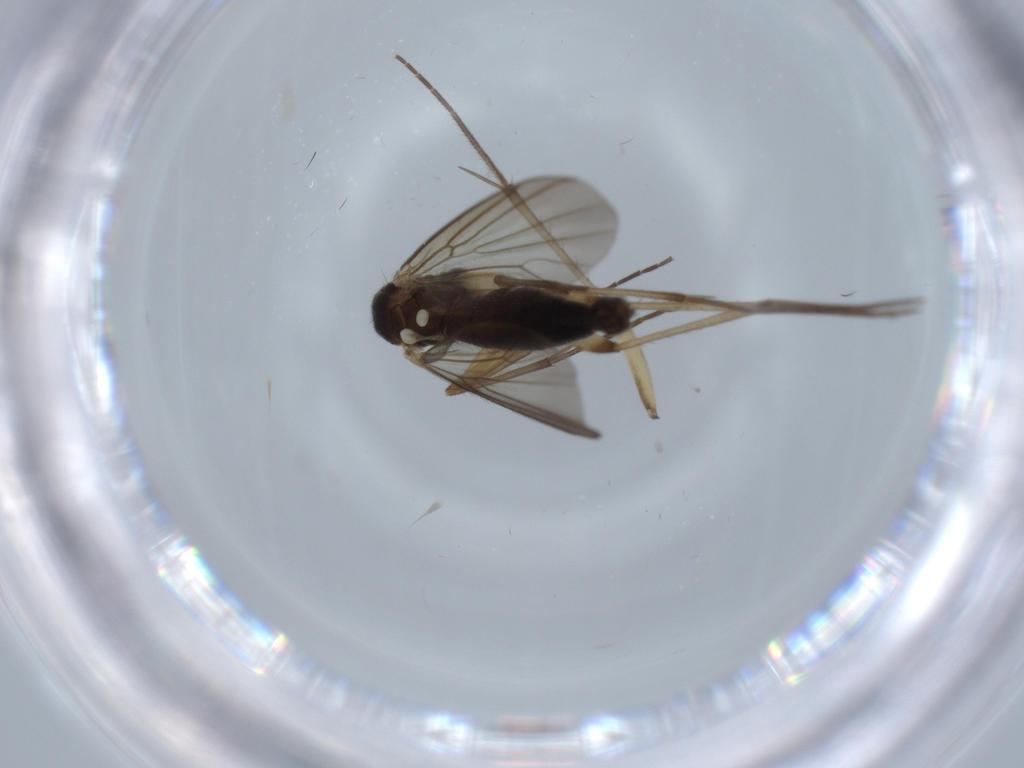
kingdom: Animalia
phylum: Arthropoda
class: Insecta
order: Diptera
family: Mycetophilidae
